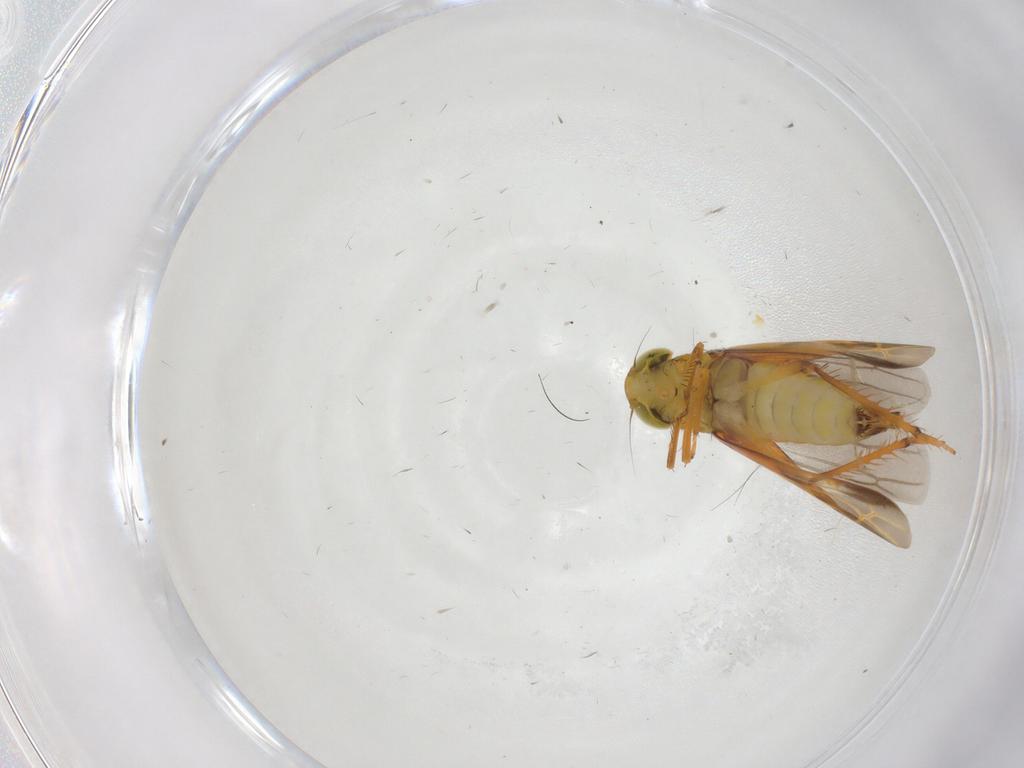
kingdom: Animalia
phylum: Arthropoda
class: Insecta
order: Hemiptera
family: Cicadellidae
